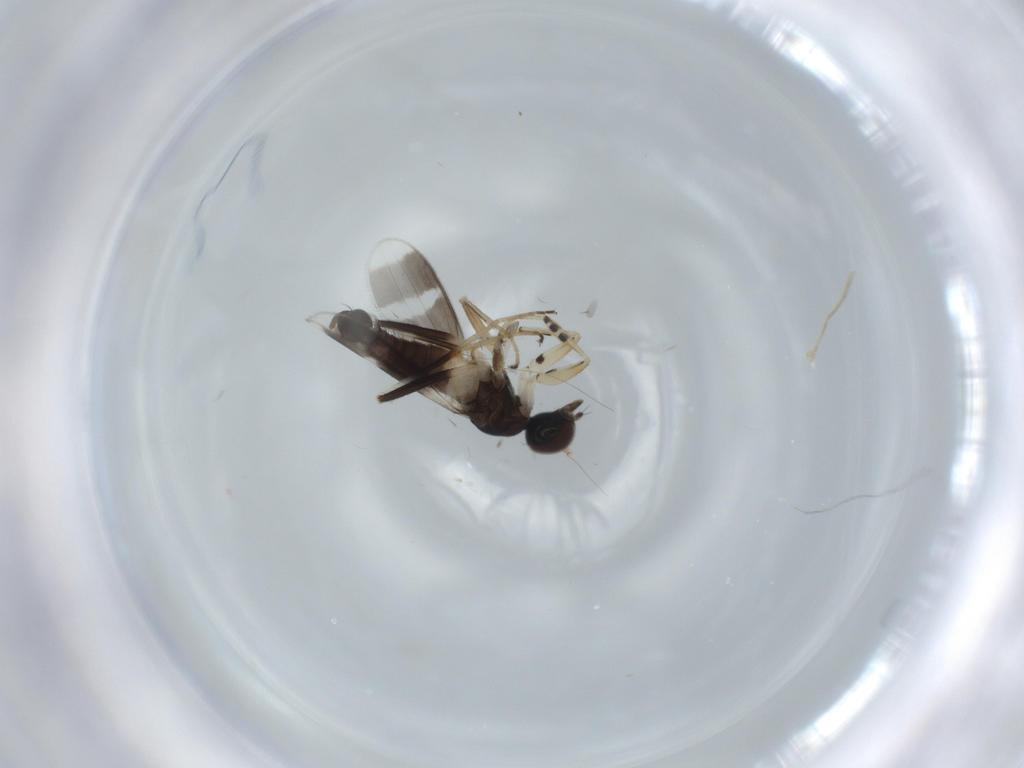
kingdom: Animalia
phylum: Arthropoda
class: Insecta
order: Diptera
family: Hybotidae
